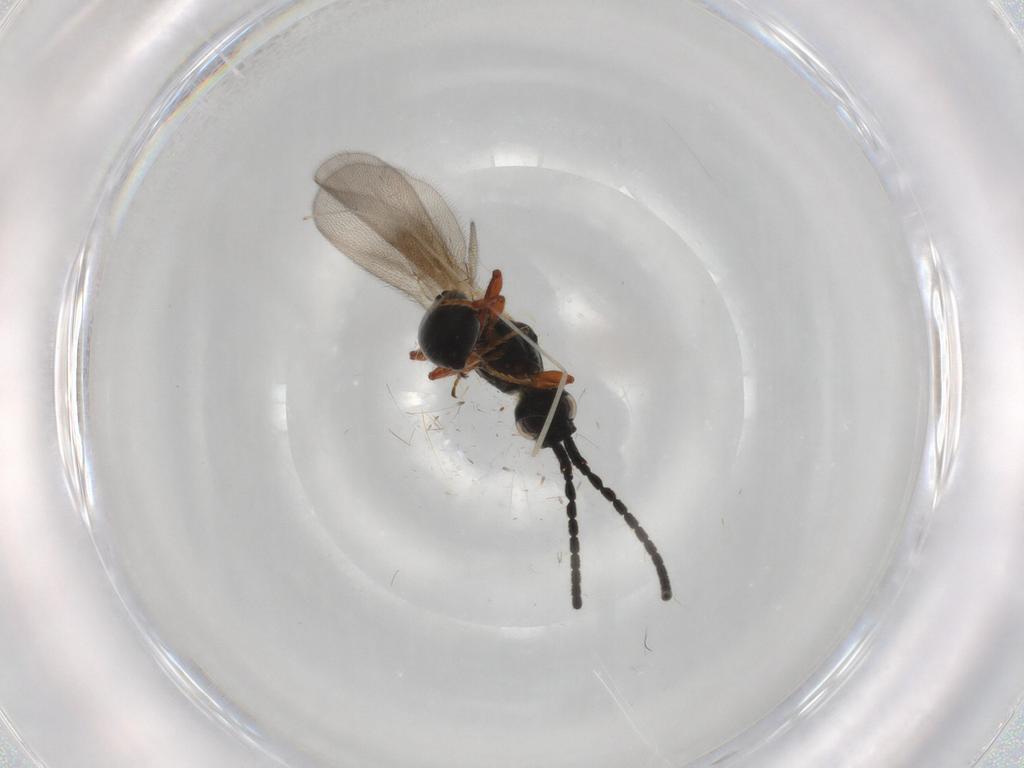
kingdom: Animalia
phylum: Arthropoda
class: Insecta
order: Hymenoptera
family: Diapriidae
